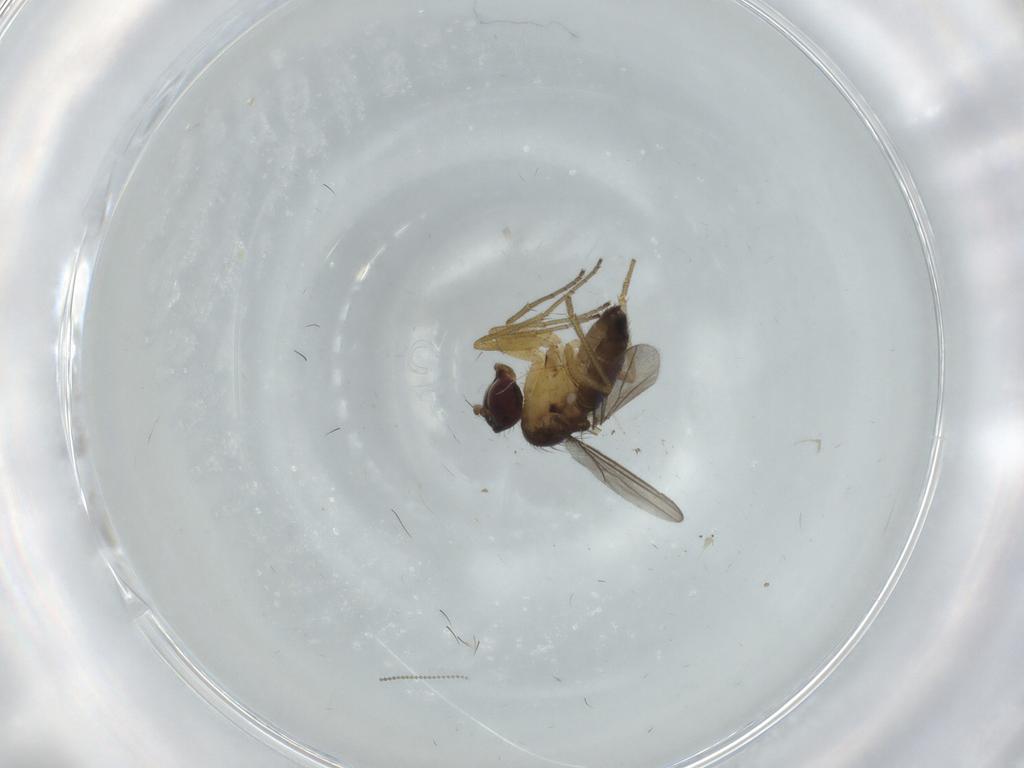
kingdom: Animalia
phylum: Arthropoda
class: Insecta
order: Diptera
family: Dolichopodidae
